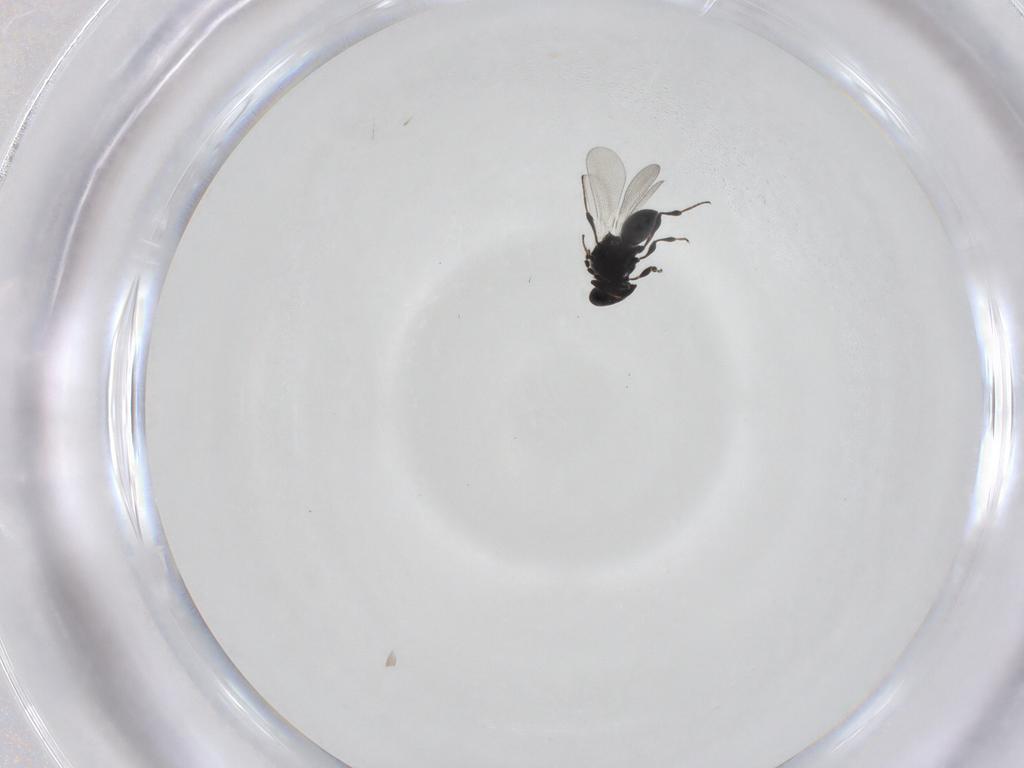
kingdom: Animalia
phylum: Arthropoda
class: Insecta
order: Hymenoptera
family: Platygastridae
